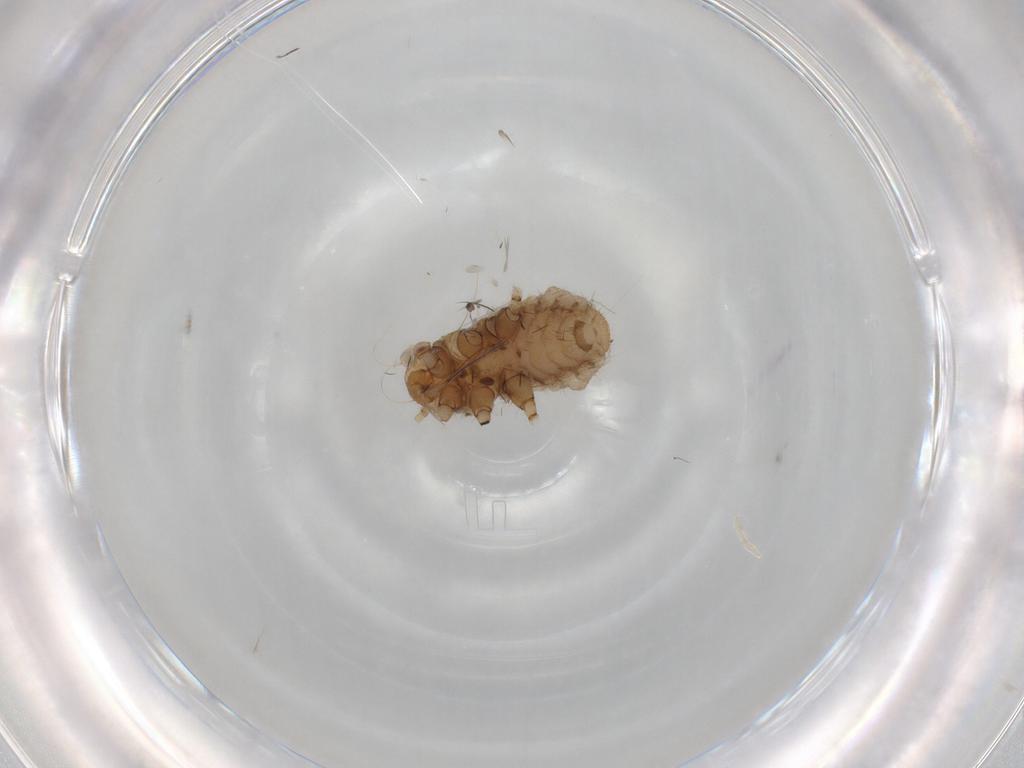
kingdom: Animalia
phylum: Arthropoda
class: Insecta
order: Hemiptera
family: Aphididae
